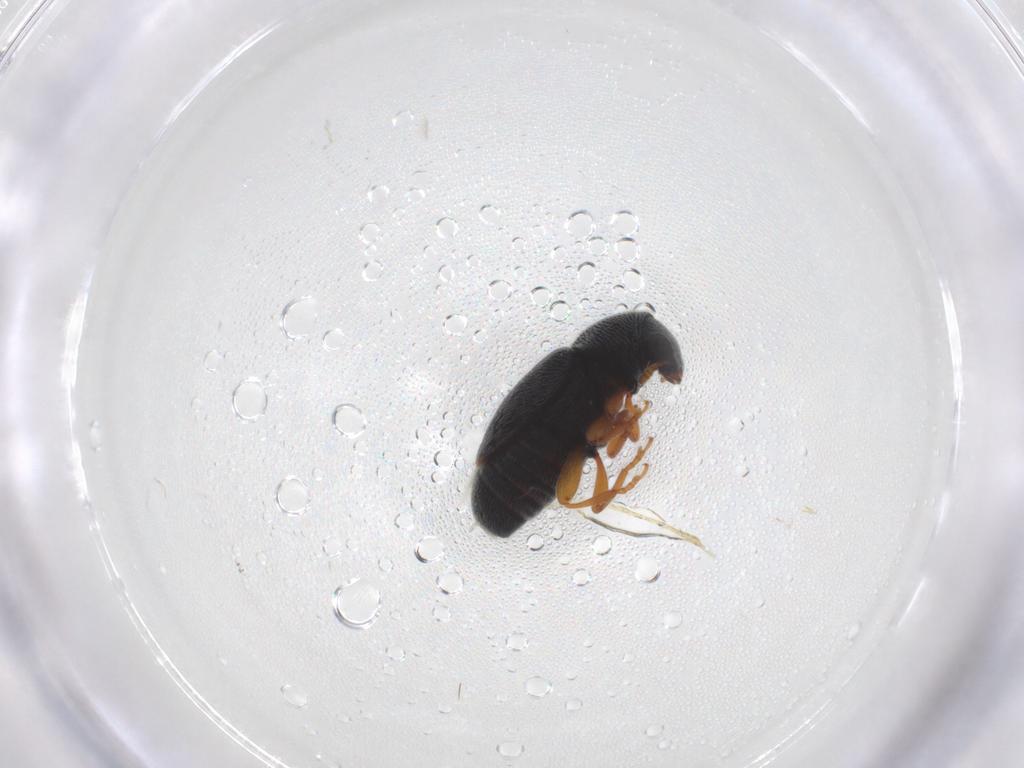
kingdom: Animalia
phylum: Arthropoda
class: Insecta
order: Coleoptera
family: Anthribidae
